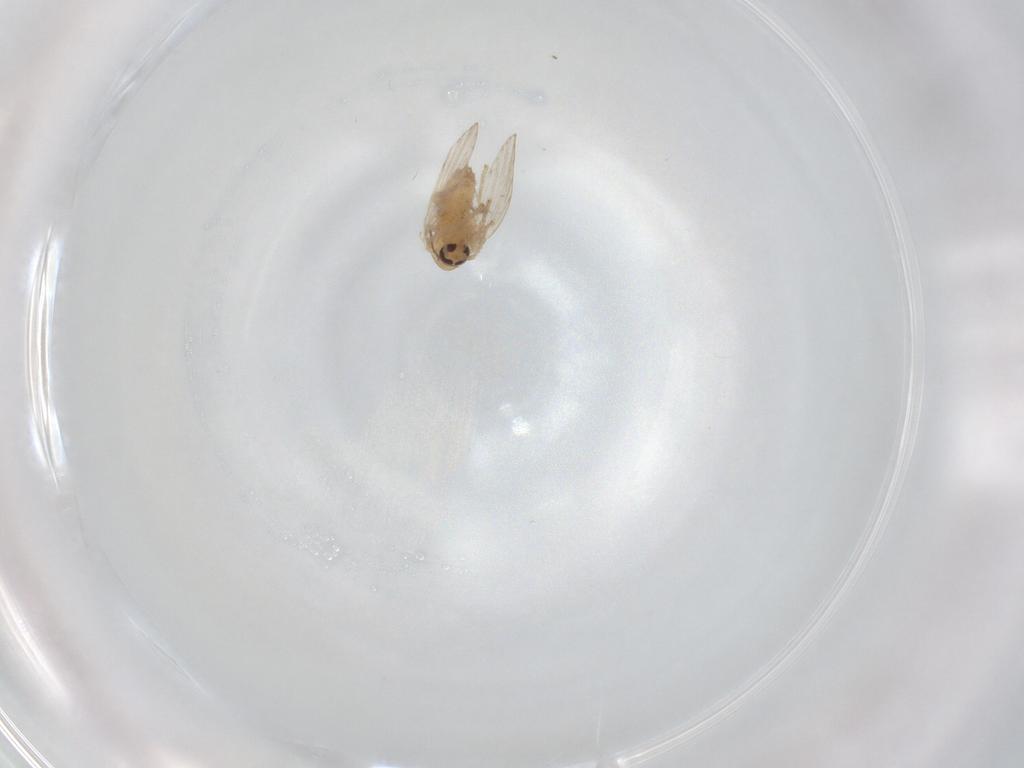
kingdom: Animalia
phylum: Arthropoda
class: Insecta
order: Diptera
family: Psychodidae
